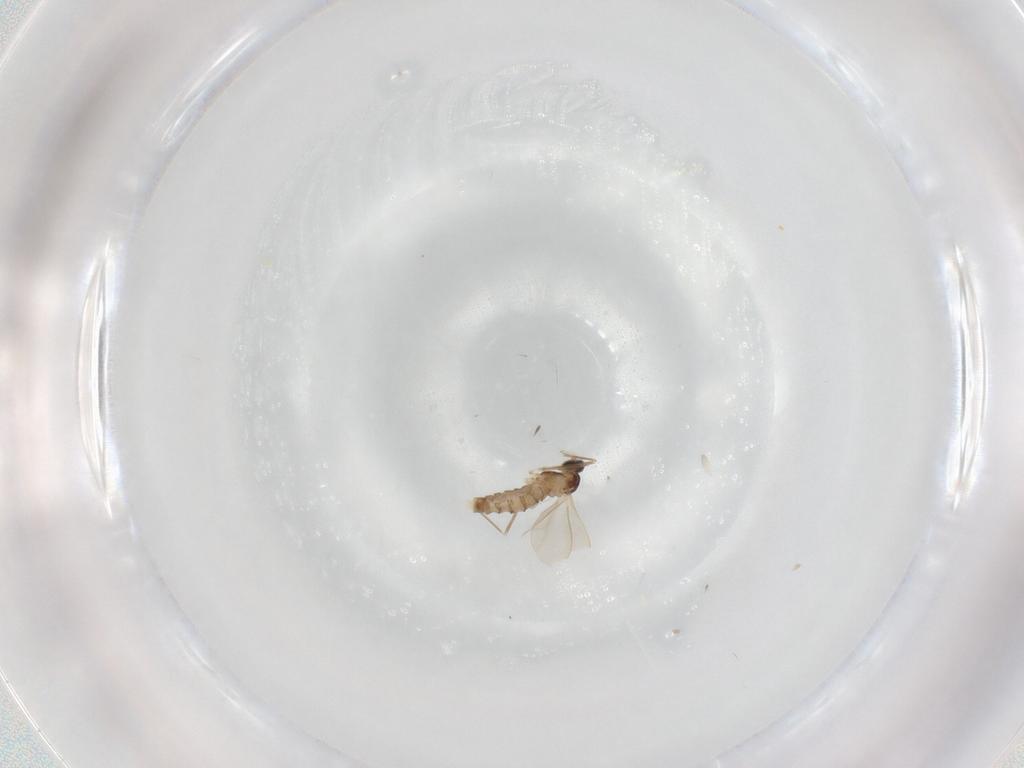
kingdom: Animalia
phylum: Arthropoda
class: Insecta
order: Diptera
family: Cecidomyiidae
